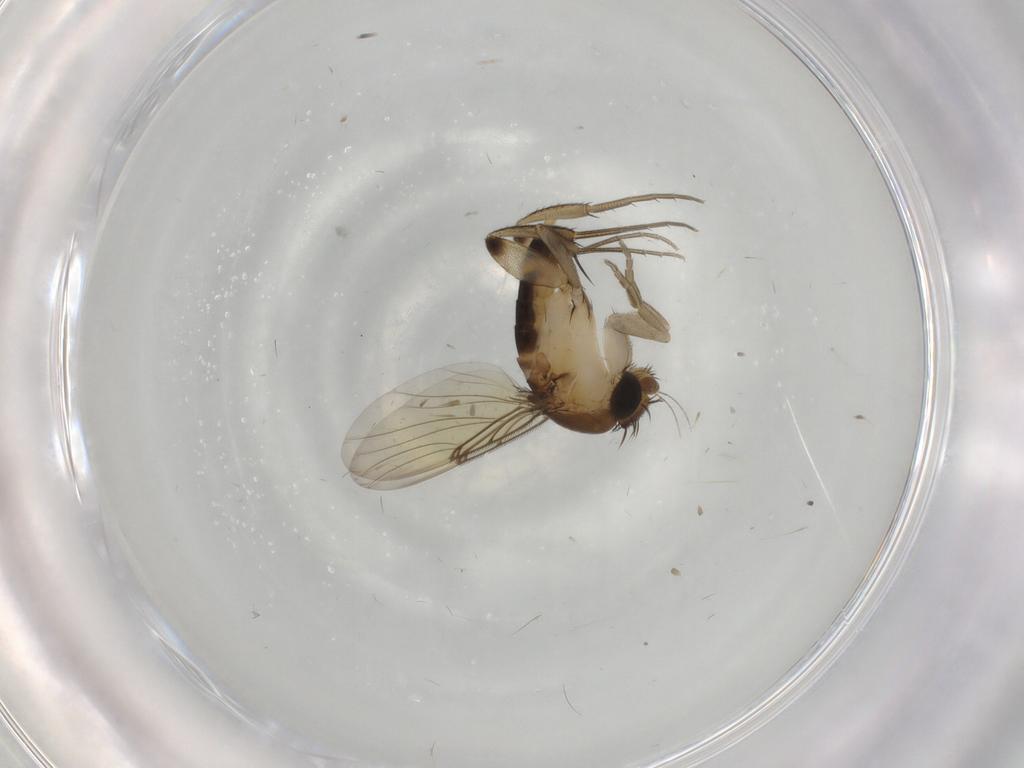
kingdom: Animalia
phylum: Arthropoda
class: Insecta
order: Diptera
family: Phoridae
